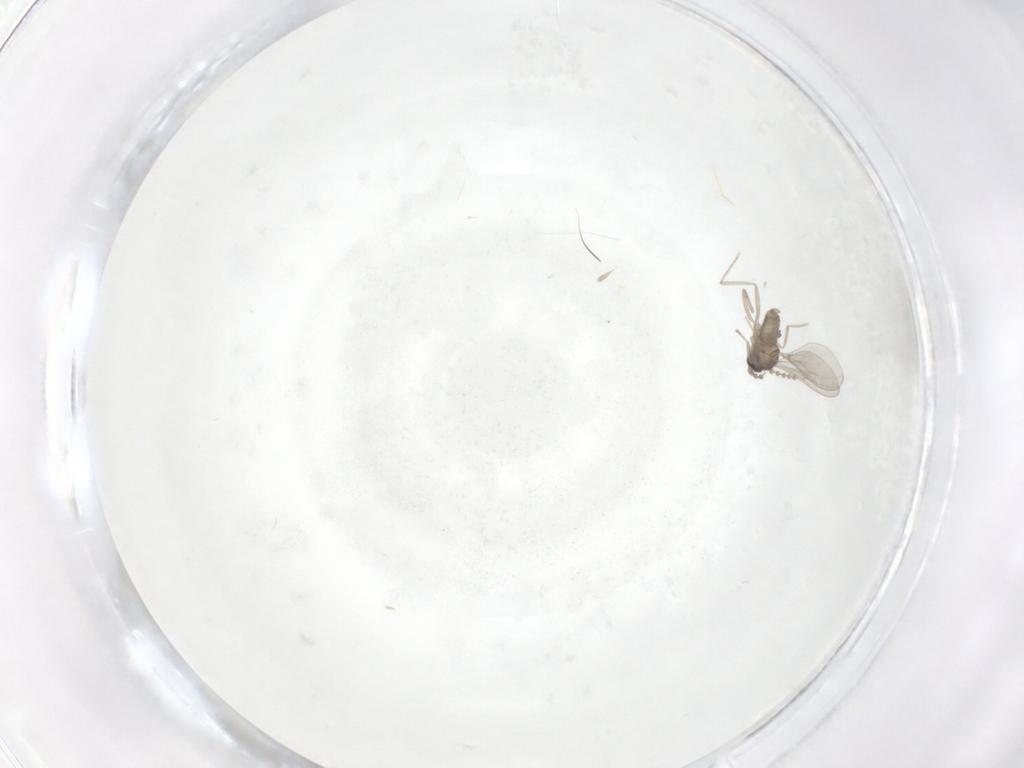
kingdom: Animalia
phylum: Arthropoda
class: Insecta
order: Diptera
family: Cecidomyiidae
